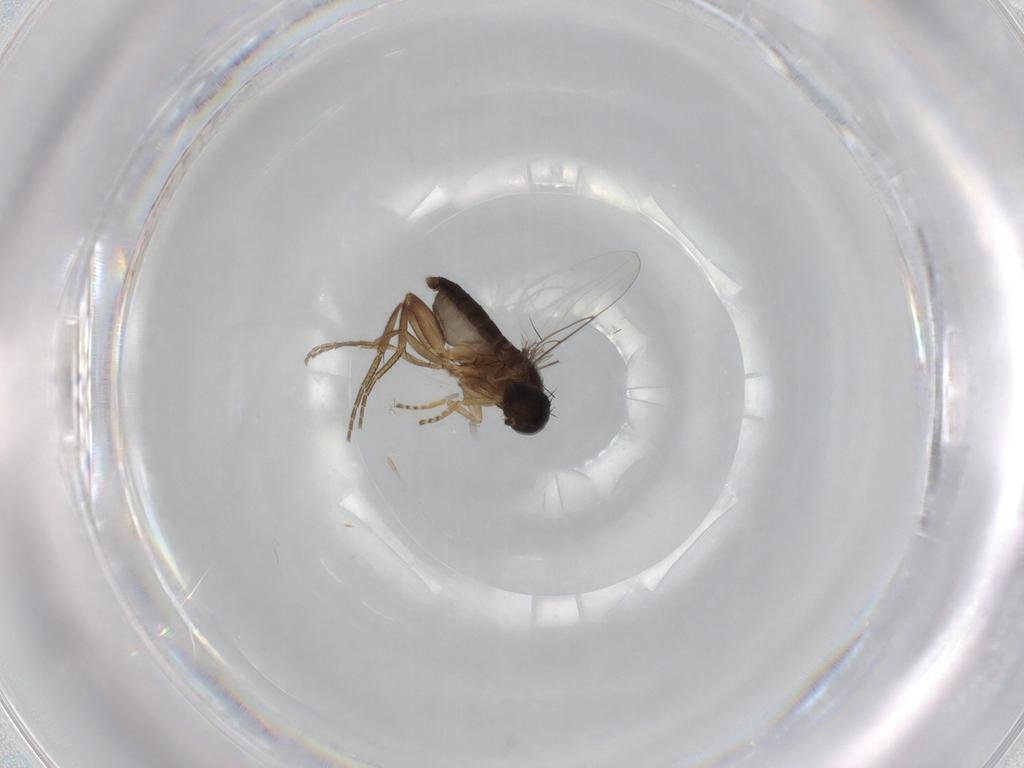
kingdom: Animalia
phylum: Arthropoda
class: Insecta
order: Diptera
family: Phoridae
